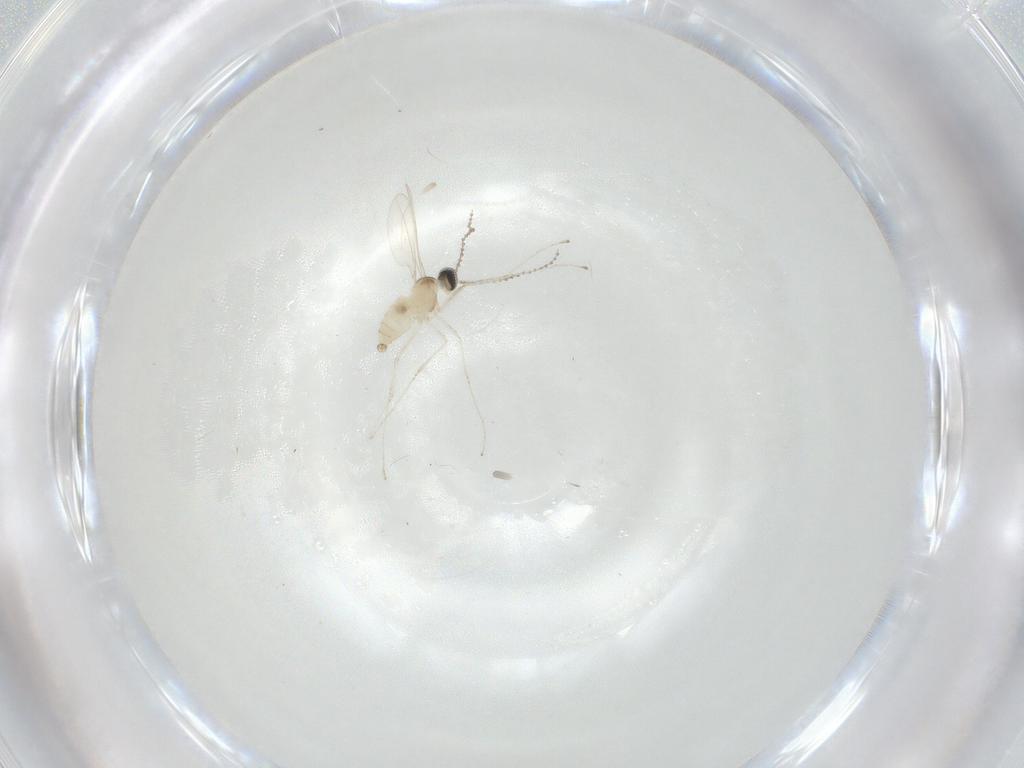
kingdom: Animalia
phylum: Arthropoda
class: Insecta
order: Diptera
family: Cecidomyiidae
